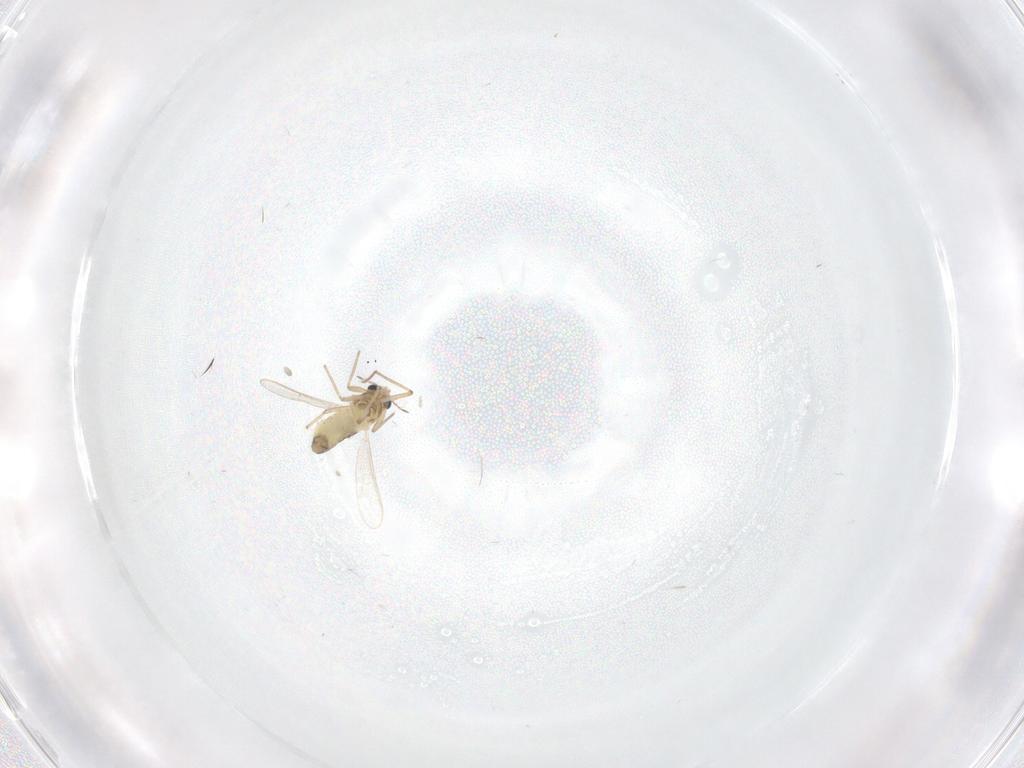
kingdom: Animalia
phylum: Arthropoda
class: Insecta
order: Diptera
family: Chironomidae
